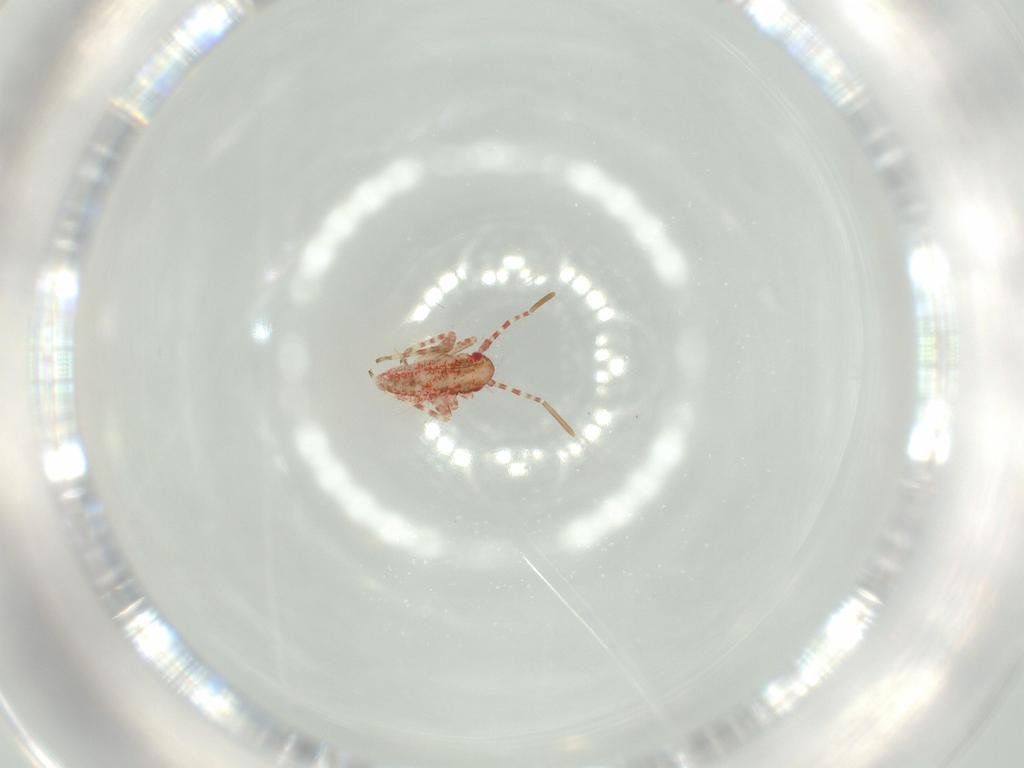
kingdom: Animalia
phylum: Arthropoda
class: Insecta
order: Hemiptera
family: Miridae
